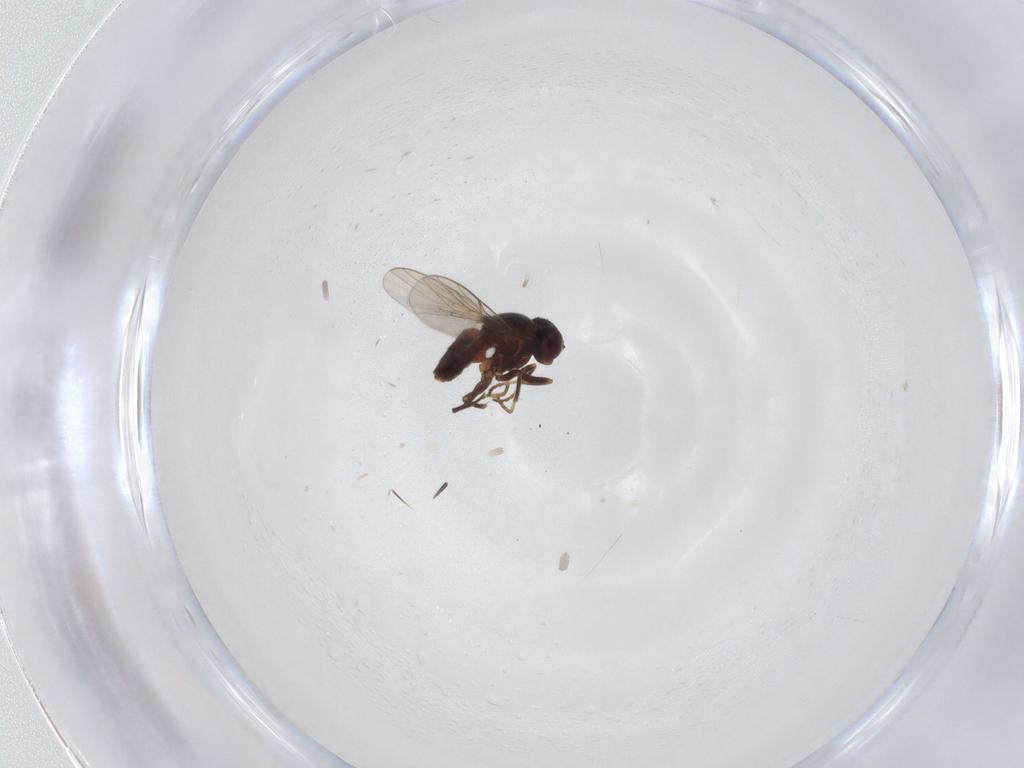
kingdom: Animalia
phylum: Arthropoda
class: Insecta
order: Diptera
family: Chloropidae
